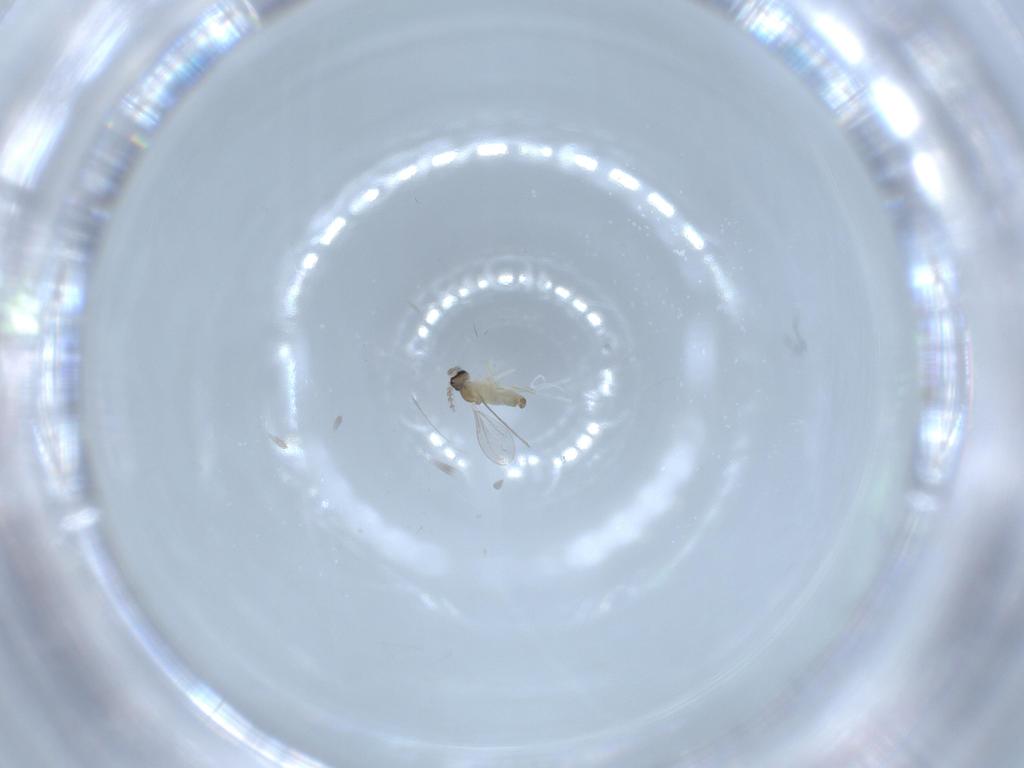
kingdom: Animalia
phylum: Arthropoda
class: Insecta
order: Diptera
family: Cecidomyiidae
